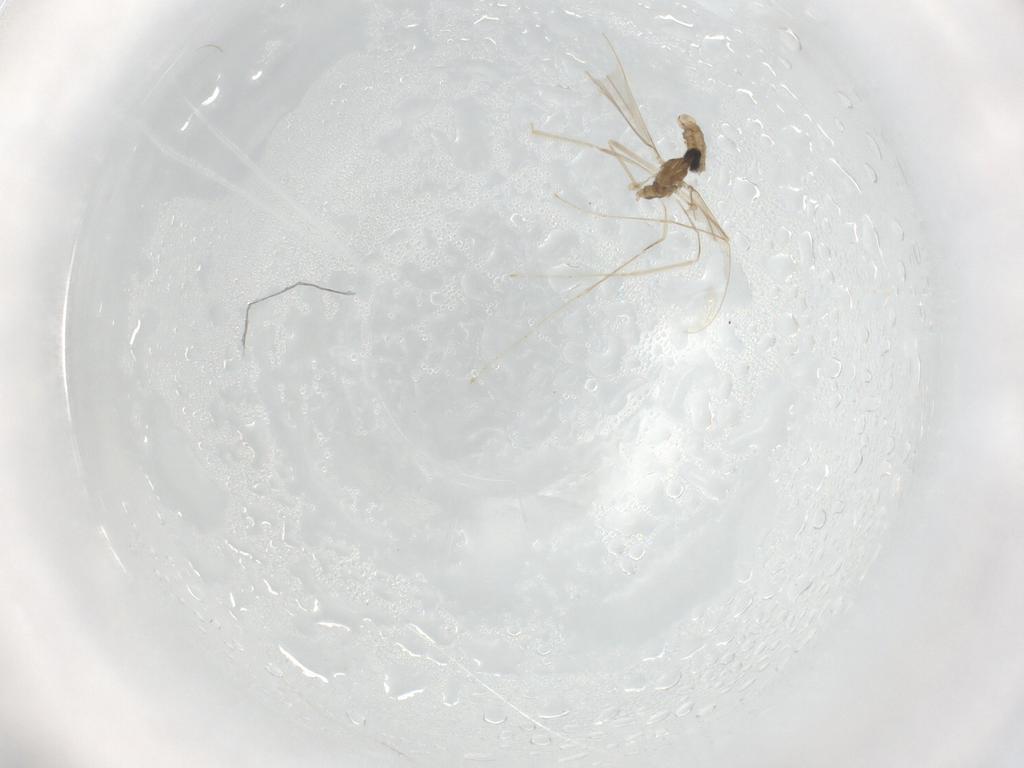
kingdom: Animalia
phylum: Arthropoda
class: Insecta
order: Diptera
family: Cecidomyiidae
